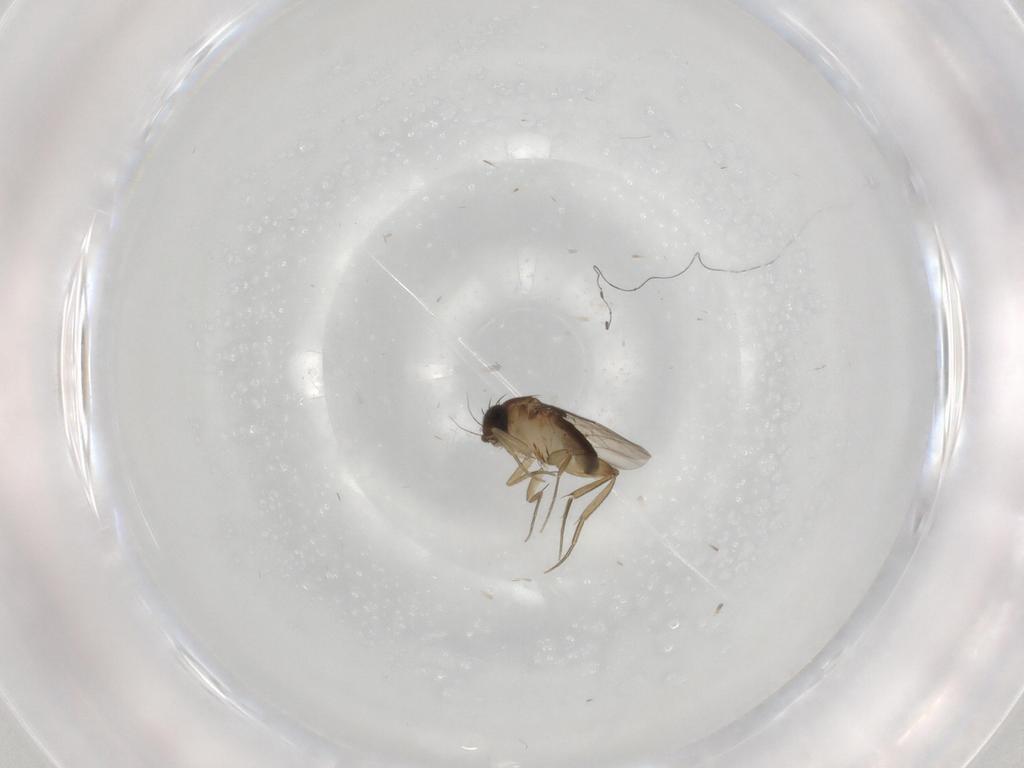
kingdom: Animalia
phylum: Arthropoda
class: Insecta
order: Diptera
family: Phoridae
